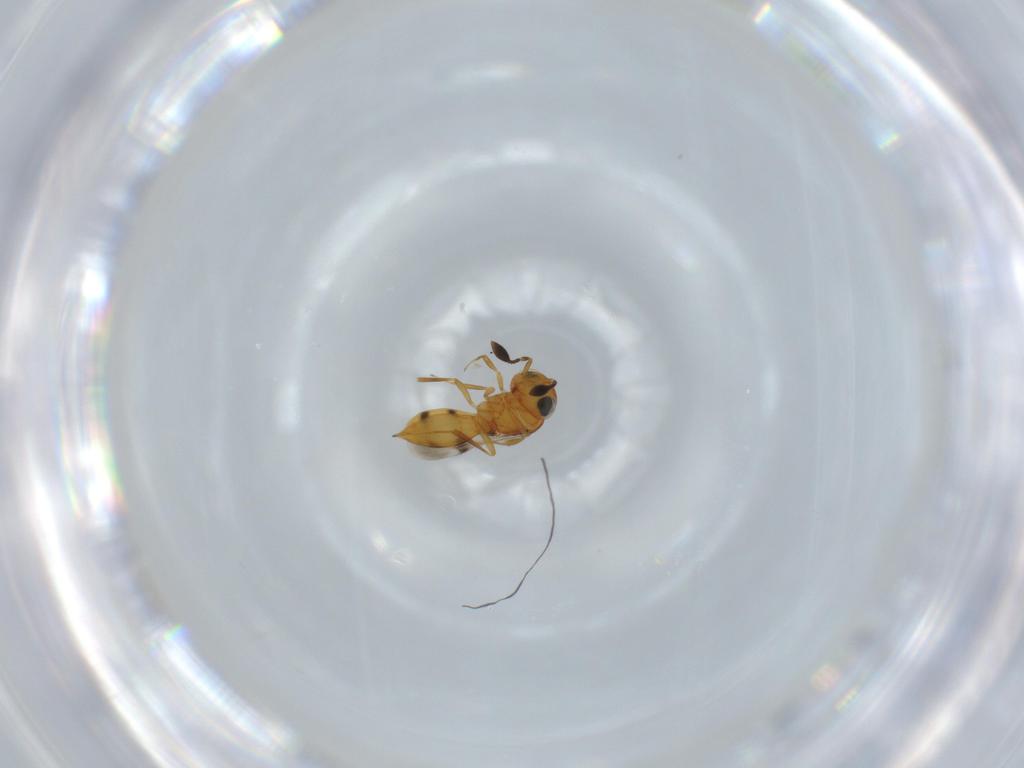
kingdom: Animalia
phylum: Arthropoda
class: Insecta
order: Hymenoptera
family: Scelionidae
